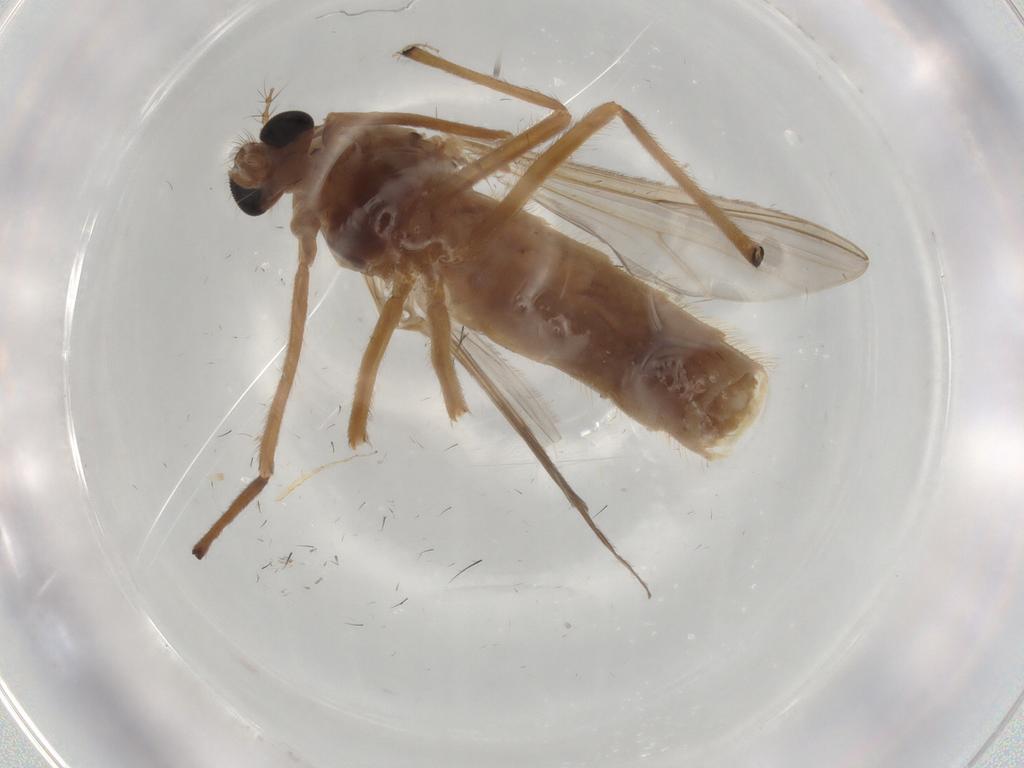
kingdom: Animalia
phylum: Arthropoda
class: Insecta
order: Diptera
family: Chironomidae
